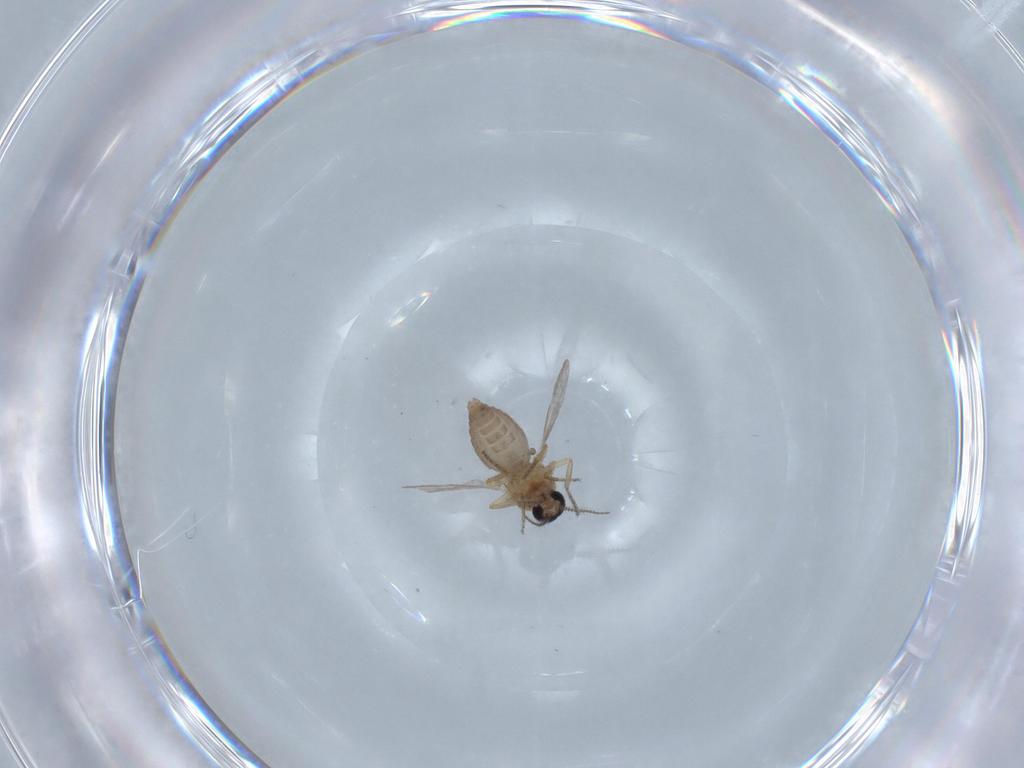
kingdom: Animalia
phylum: Arthropoda
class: Insecta
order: Diptera
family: Ceratopogonidae
